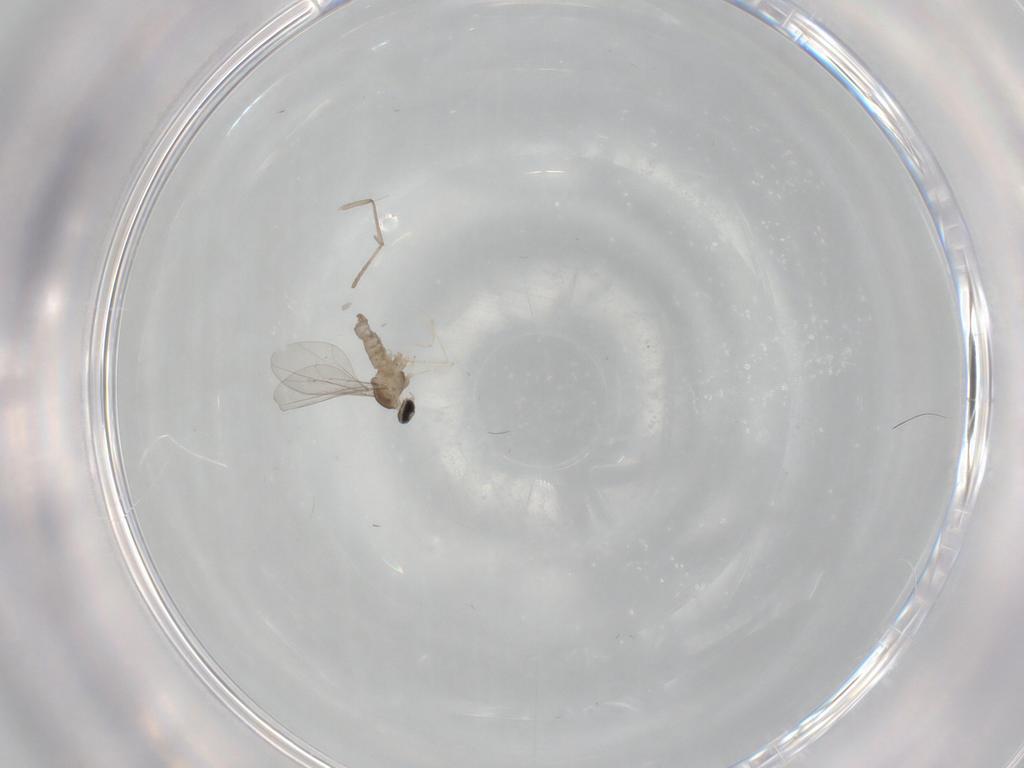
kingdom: Animalia
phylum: Arthropoda
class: Insecta
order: Diptera
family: Cecidomyiidae
